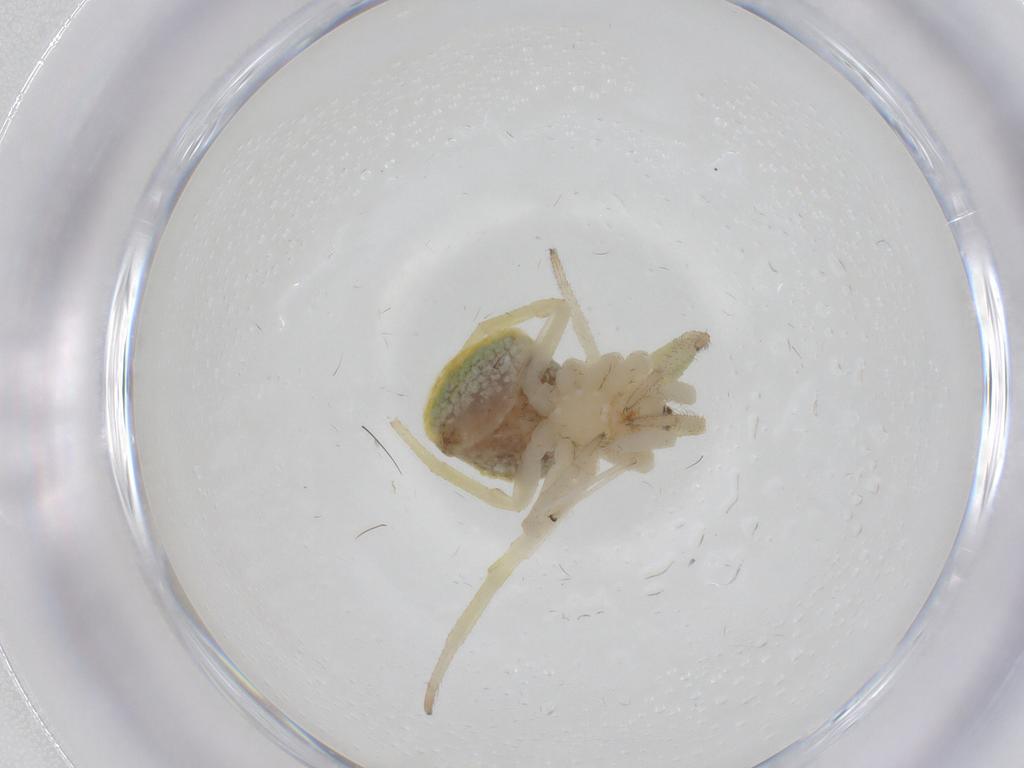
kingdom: Animalia
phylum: Arthropoda
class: Arachnida
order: Araneae
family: Araneidae
